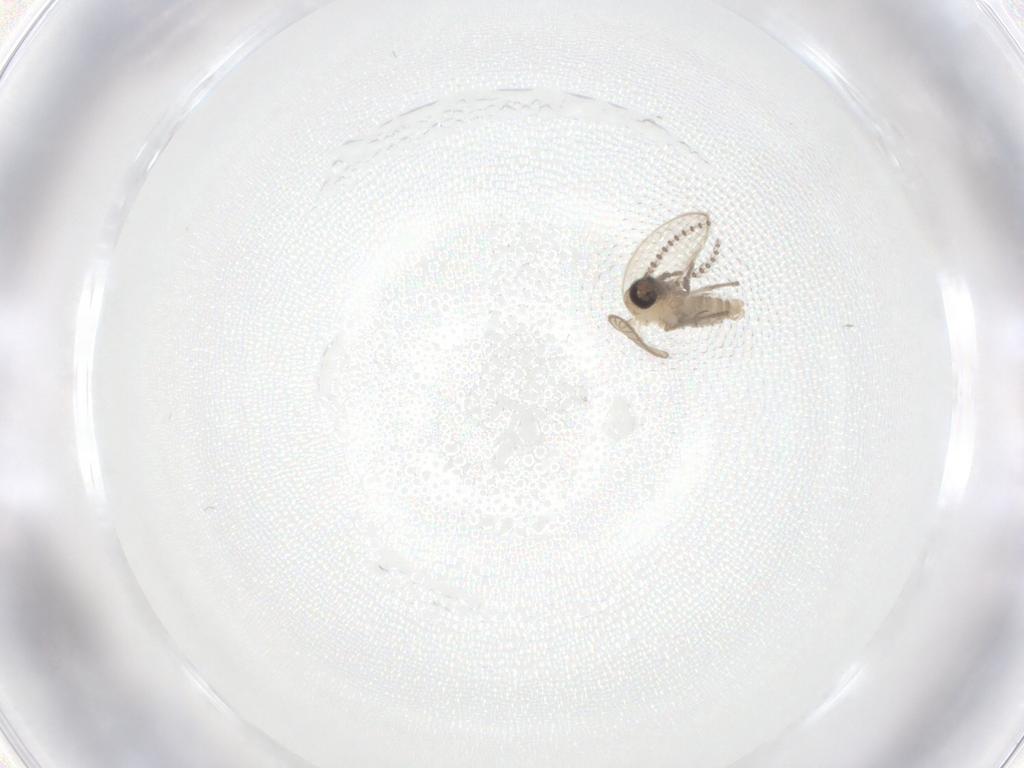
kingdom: Animalia
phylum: Arthropoda
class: Insecta
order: Diptera
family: Psychodidae
